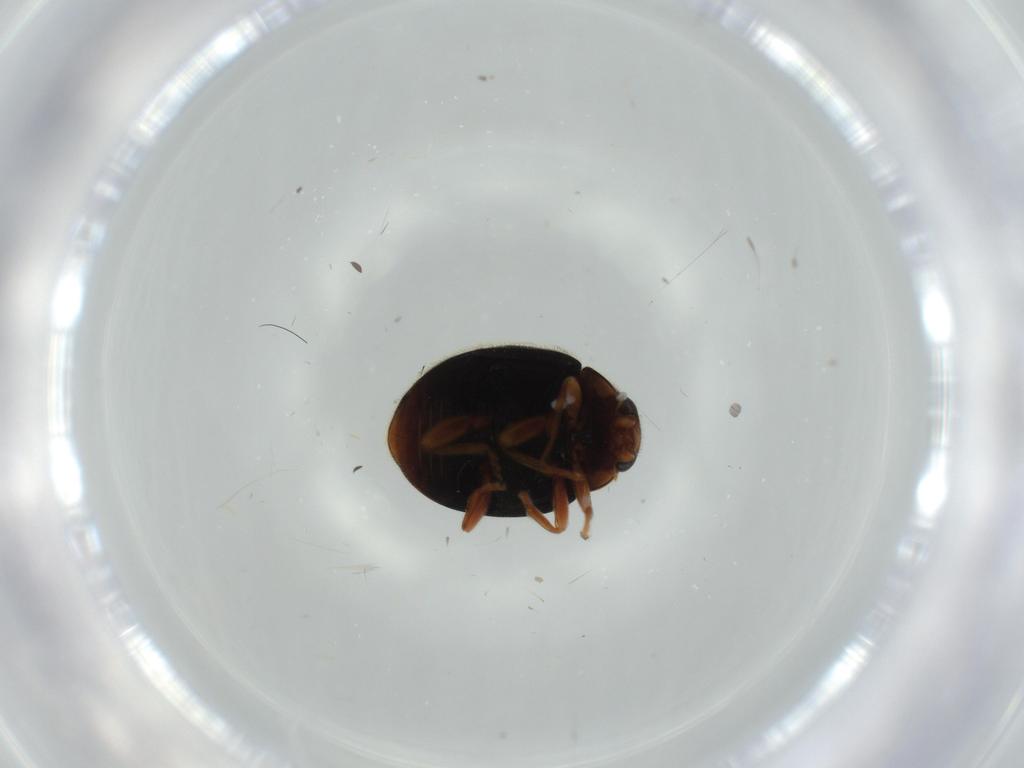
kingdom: Animalia
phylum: Arthropoda
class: Insecta
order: Coleoptera
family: Coccinellidae
